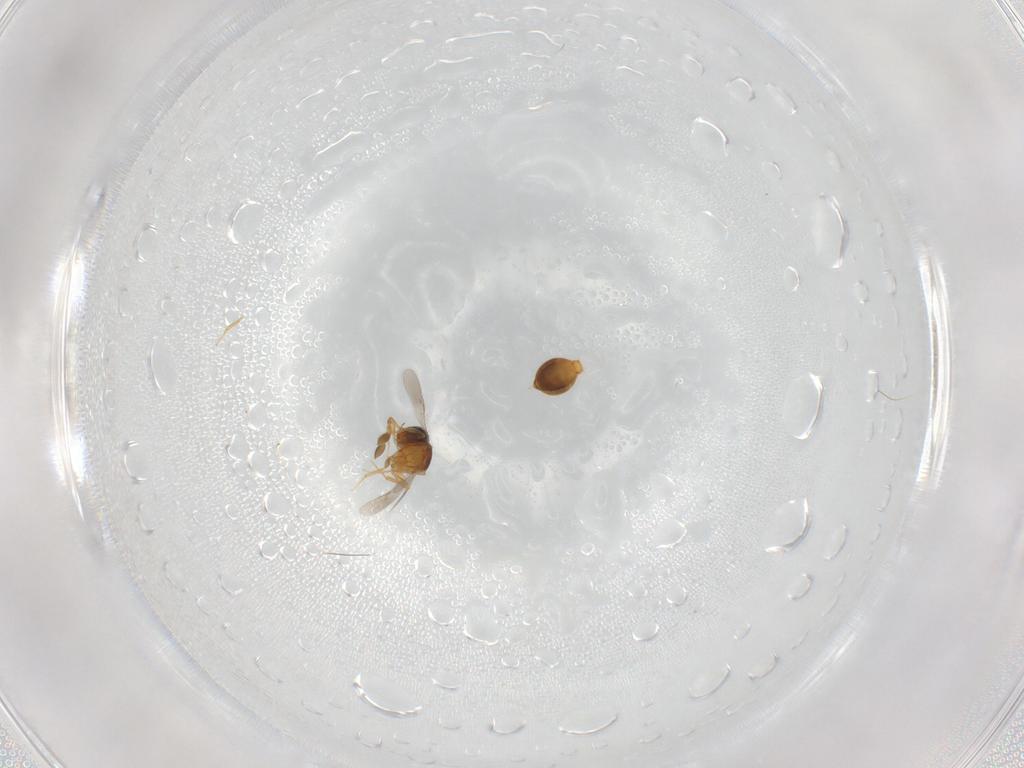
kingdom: Animalia
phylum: Arthropoda
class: Insecta
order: Hymenoptera
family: Scelionidae
